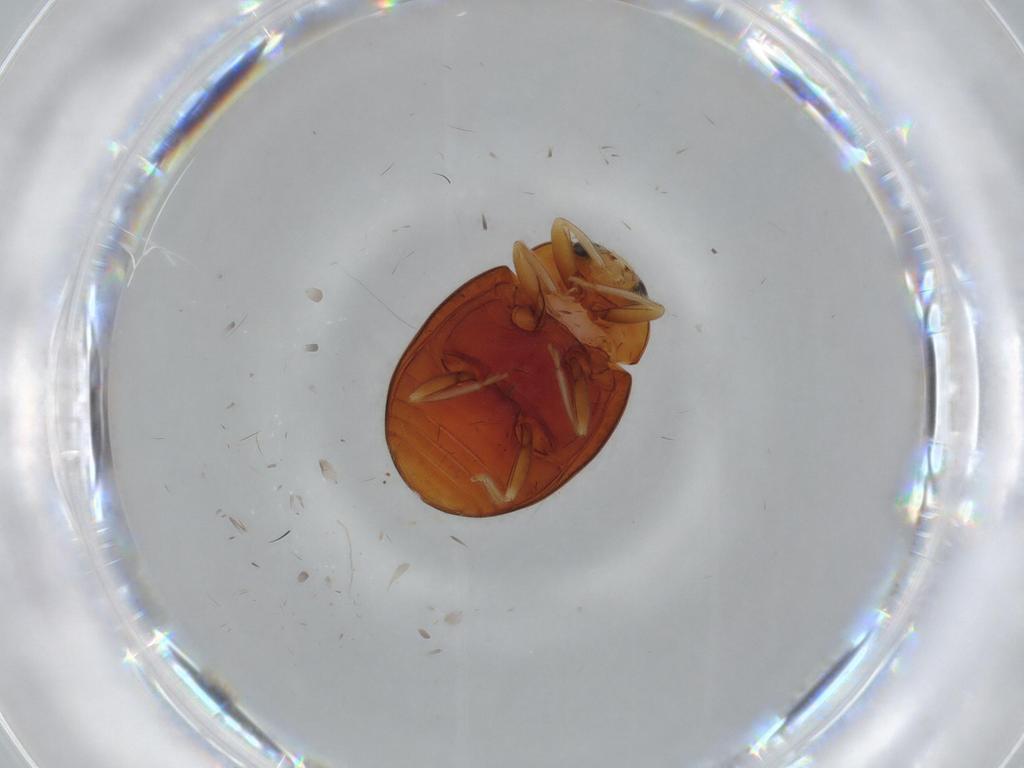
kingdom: Animalia
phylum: Arthropoda
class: Insecta
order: Coleoptera
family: Coccinellidae
